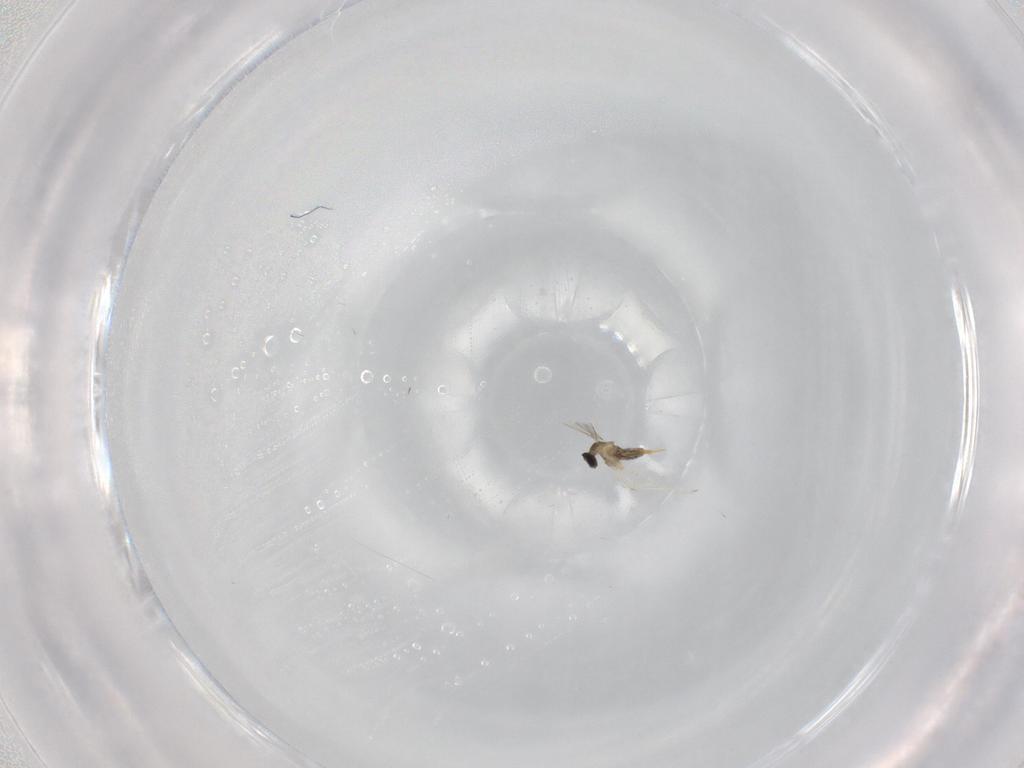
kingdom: Animalia
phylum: Arthropoda
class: Insecta
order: Diptera
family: Cecidomyiidae
